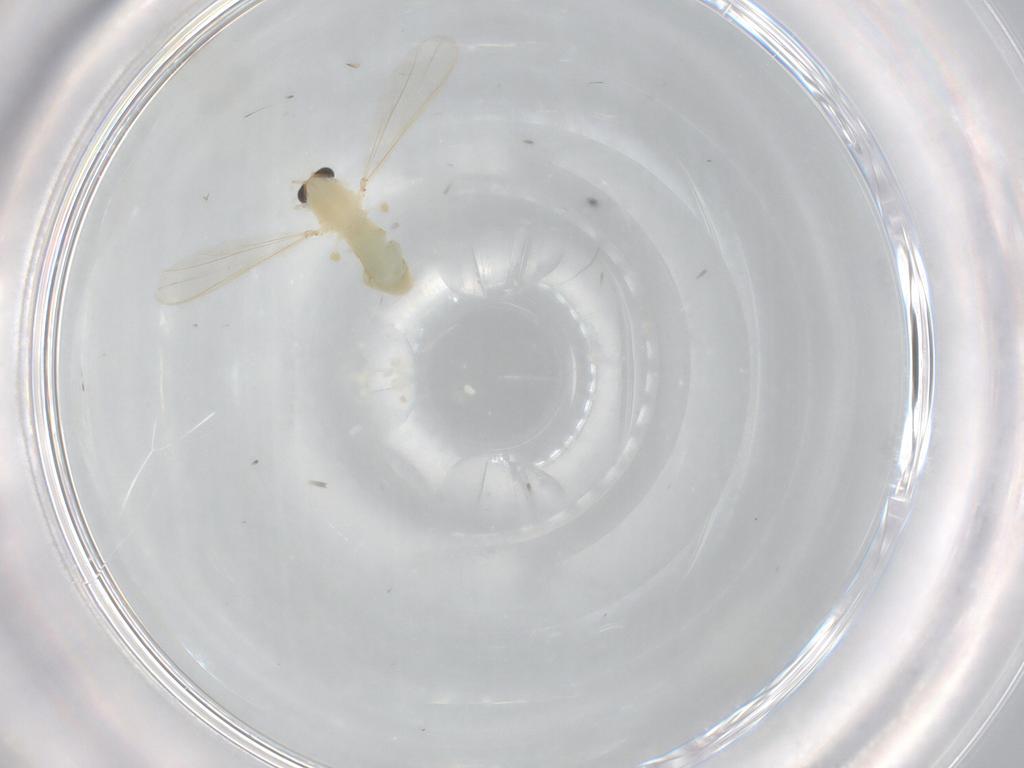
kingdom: Animalia
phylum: Arthropoda
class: Insecta
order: Diptera
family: Chironomidae
